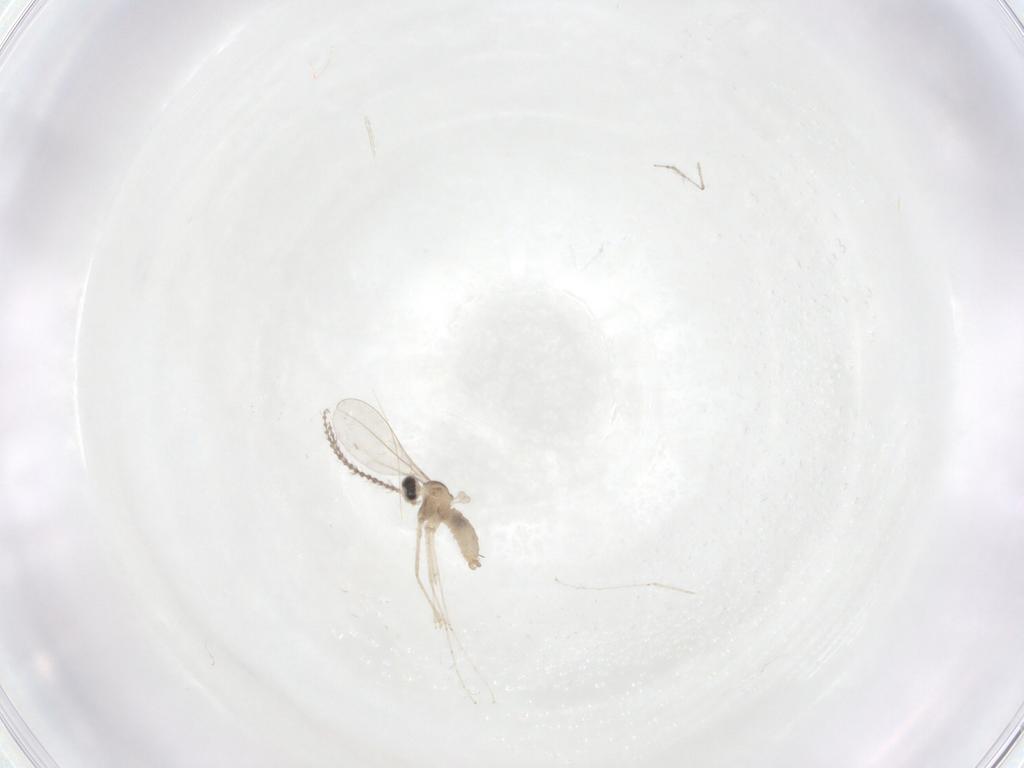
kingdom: Animalia
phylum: Arthropoda
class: Insecta
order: Diptera
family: Cecidomyiidae
